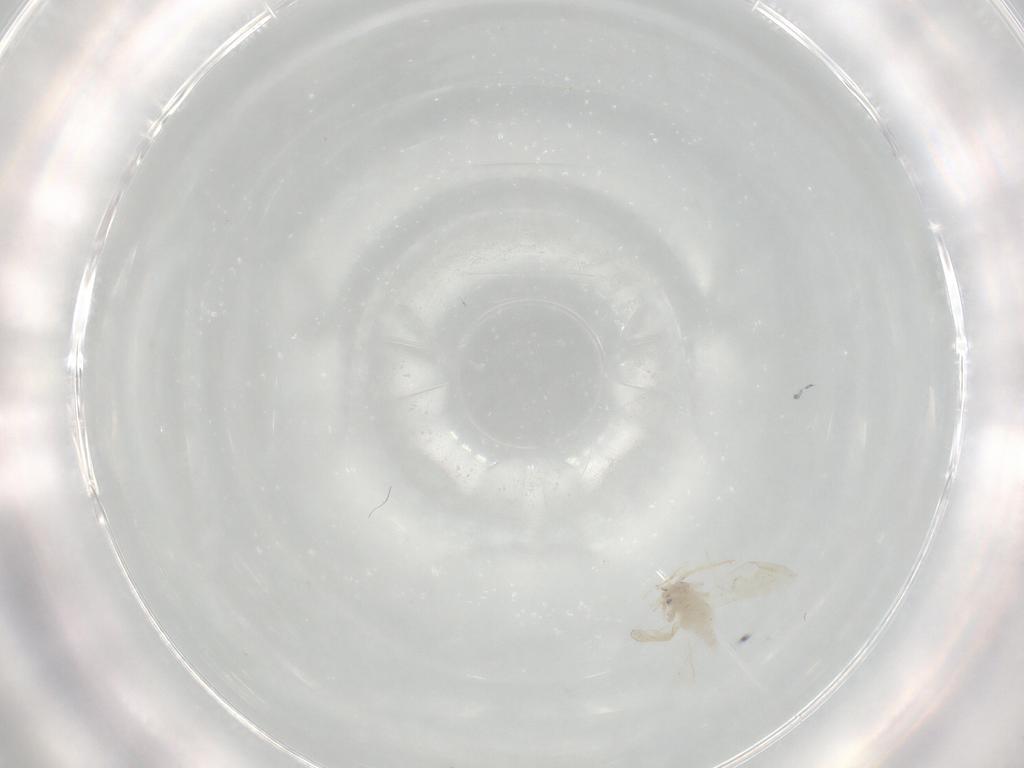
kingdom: Animalia
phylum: Arthropoda
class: Insecta
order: Hemiptera
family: Aleyrodidae
